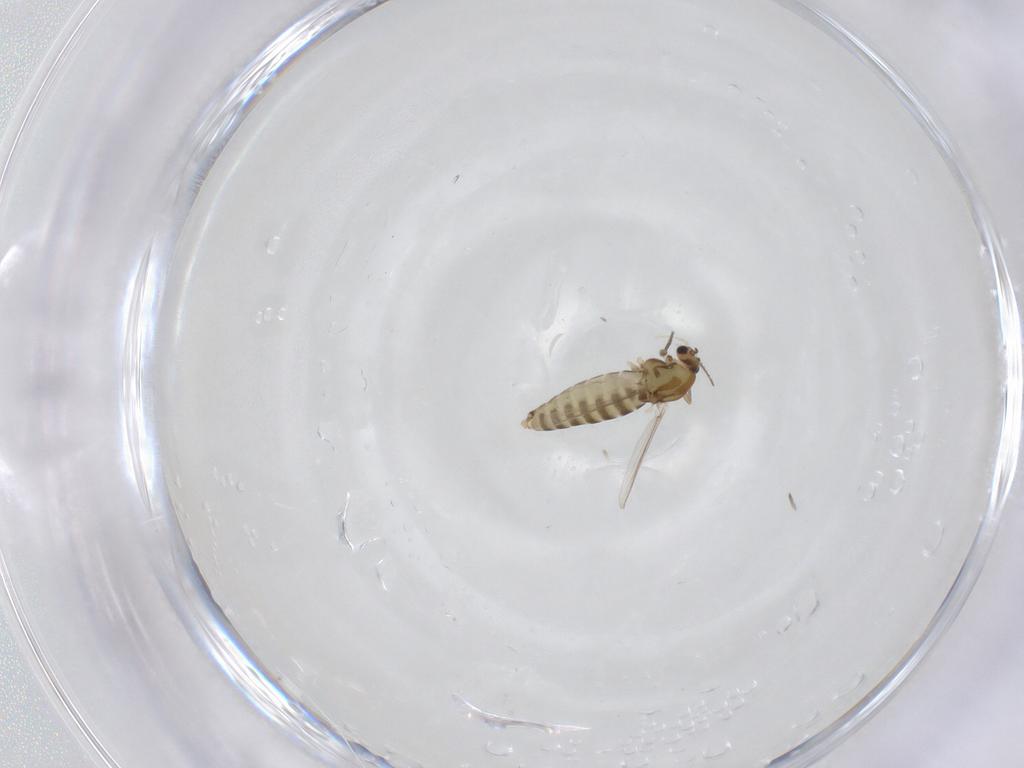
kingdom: Animalia
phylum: Arthropoda
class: Insecta
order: Diptera
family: Chironomidae
